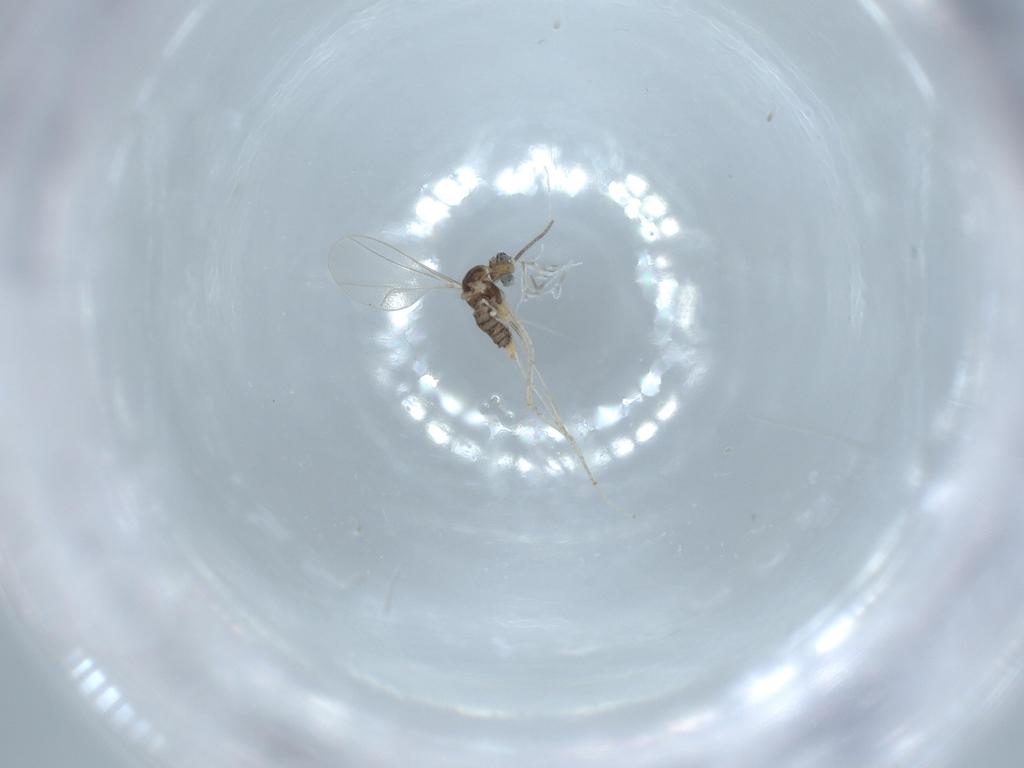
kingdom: Animalia
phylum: Arthropoda
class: Insecta
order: Diptera
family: Cecidomyiidae
